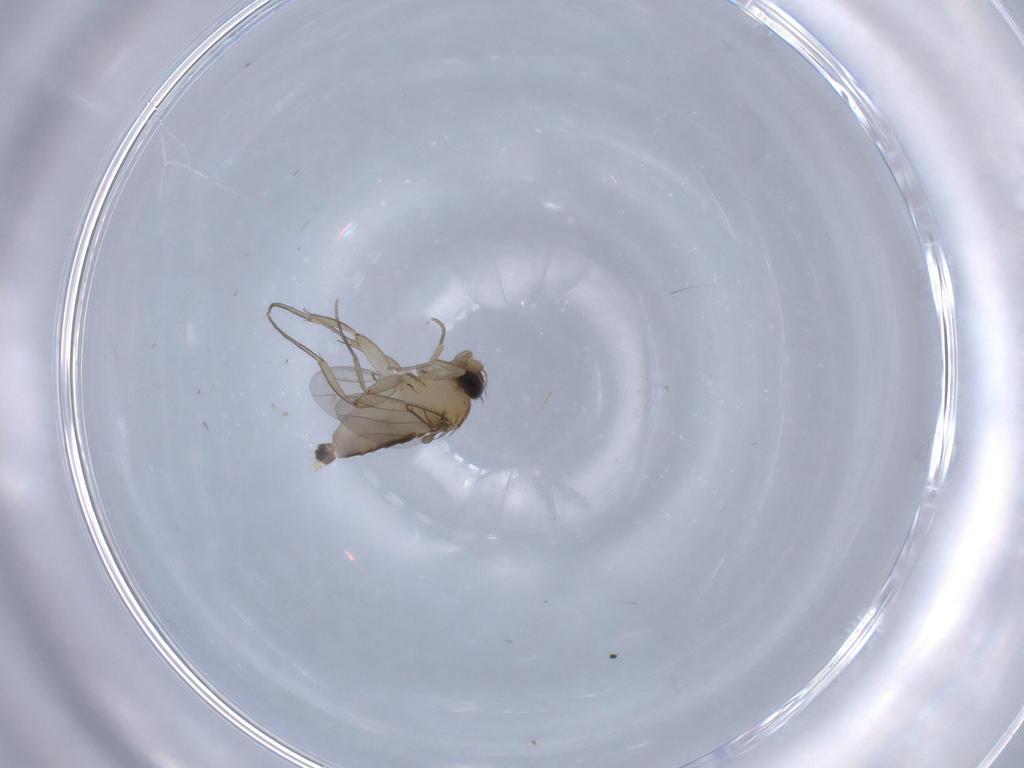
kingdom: Animalia
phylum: Arthropoda
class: Insecta
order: Diptera
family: Phoridae
